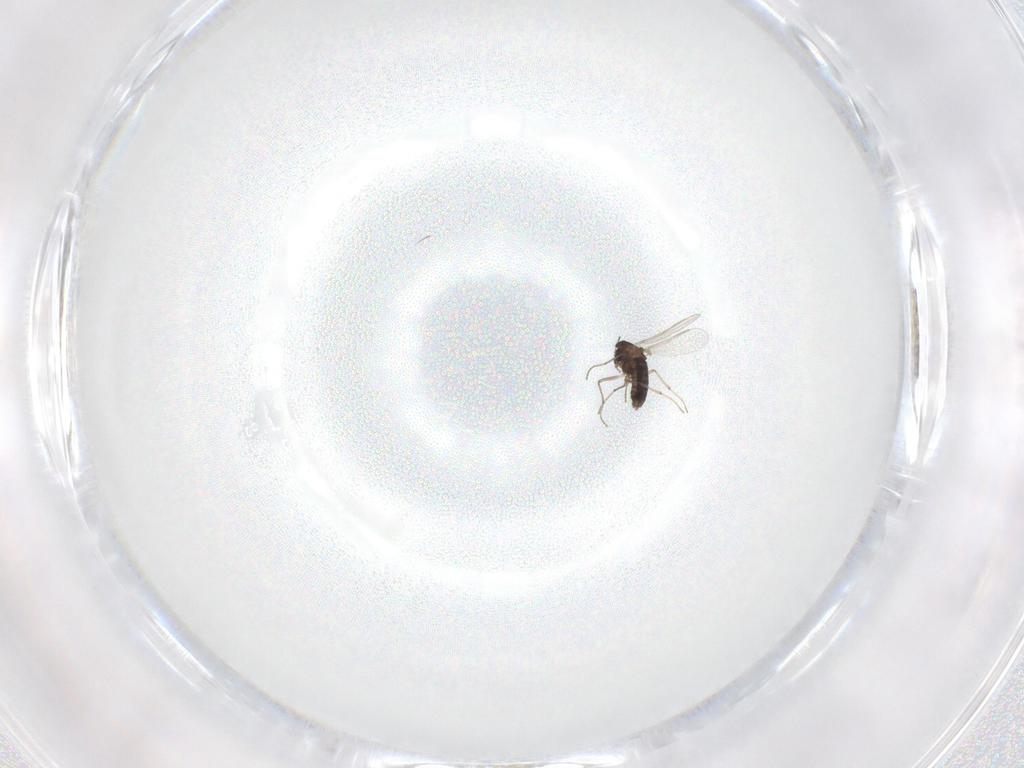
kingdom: Animalia
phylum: Arthropoda
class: Insecta
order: Diptera
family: Chironomidae
